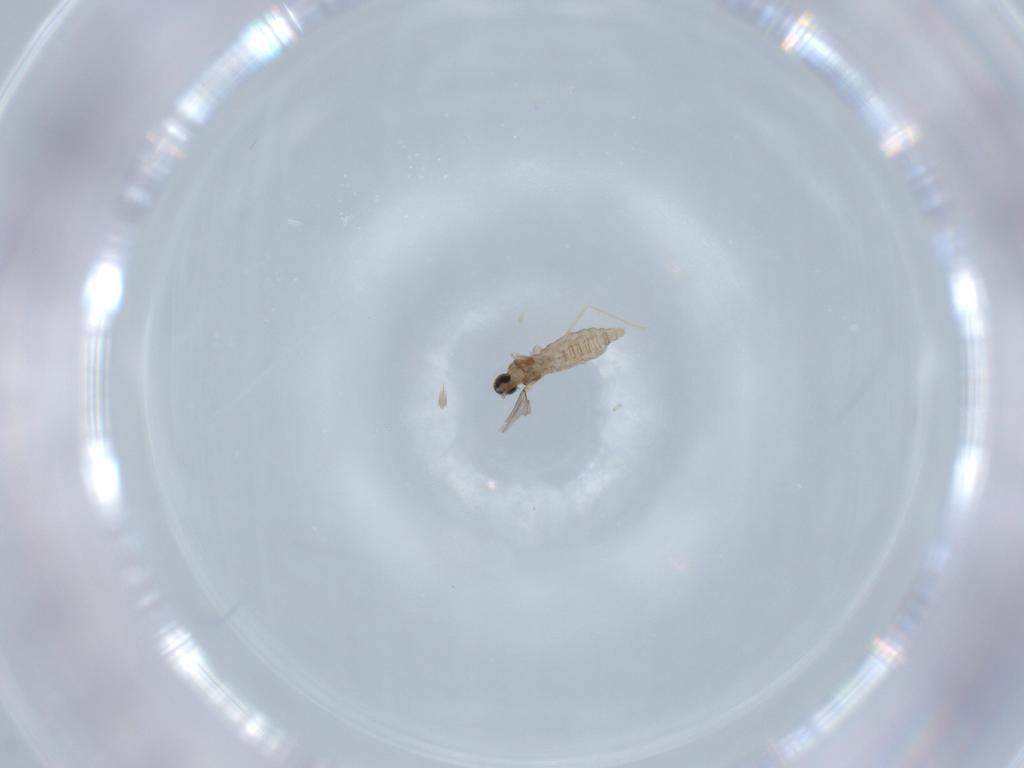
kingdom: Animalia
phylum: Arthropoda
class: Insecta
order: Diptera
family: Cecidomyiidae
